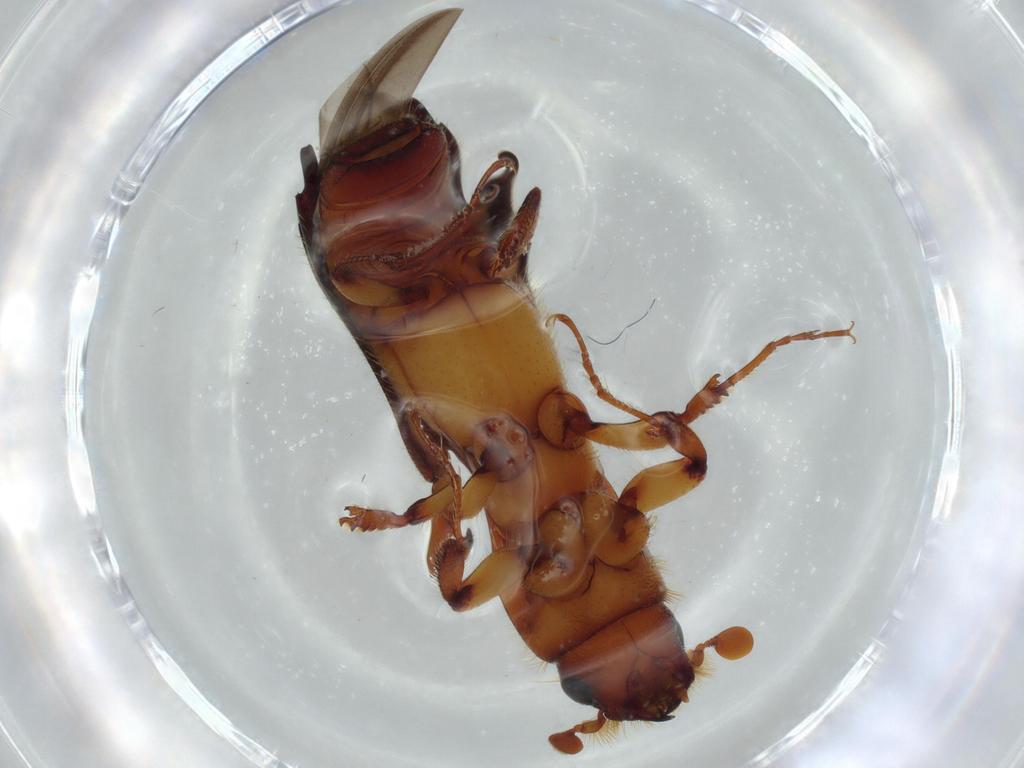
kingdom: Animalia
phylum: Arthropoda
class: Insecta
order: Coleoptera
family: Curculionidae
